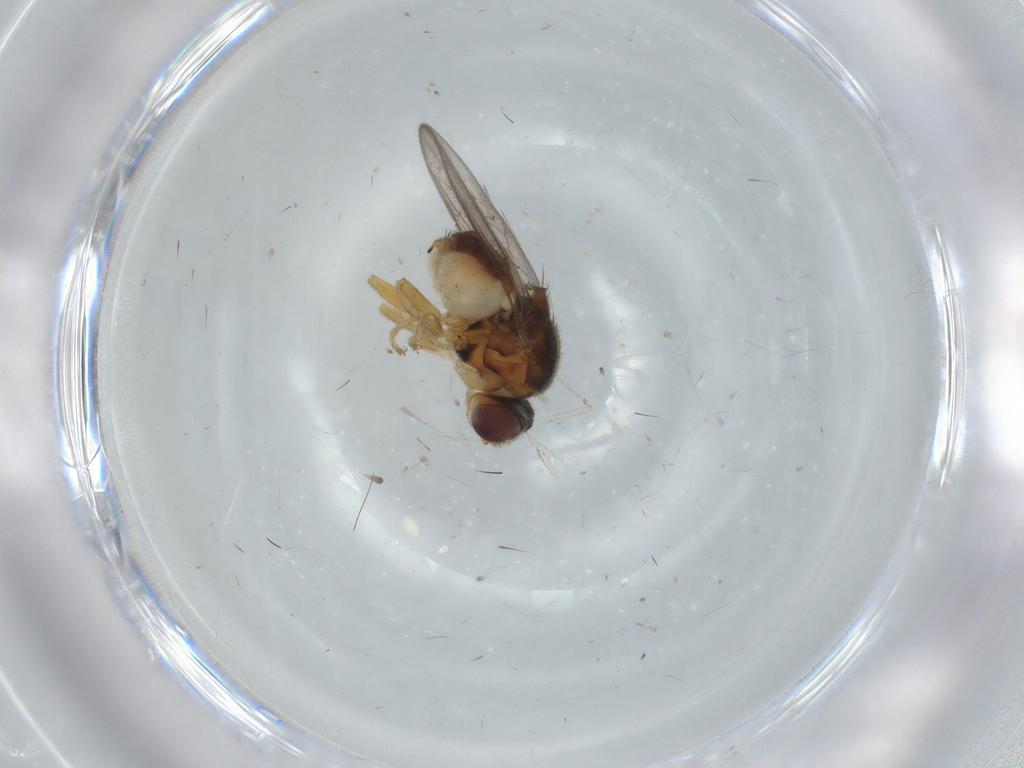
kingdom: Animalia
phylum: Arthropoda
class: Insecta
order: Diptera
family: Chloropidae
